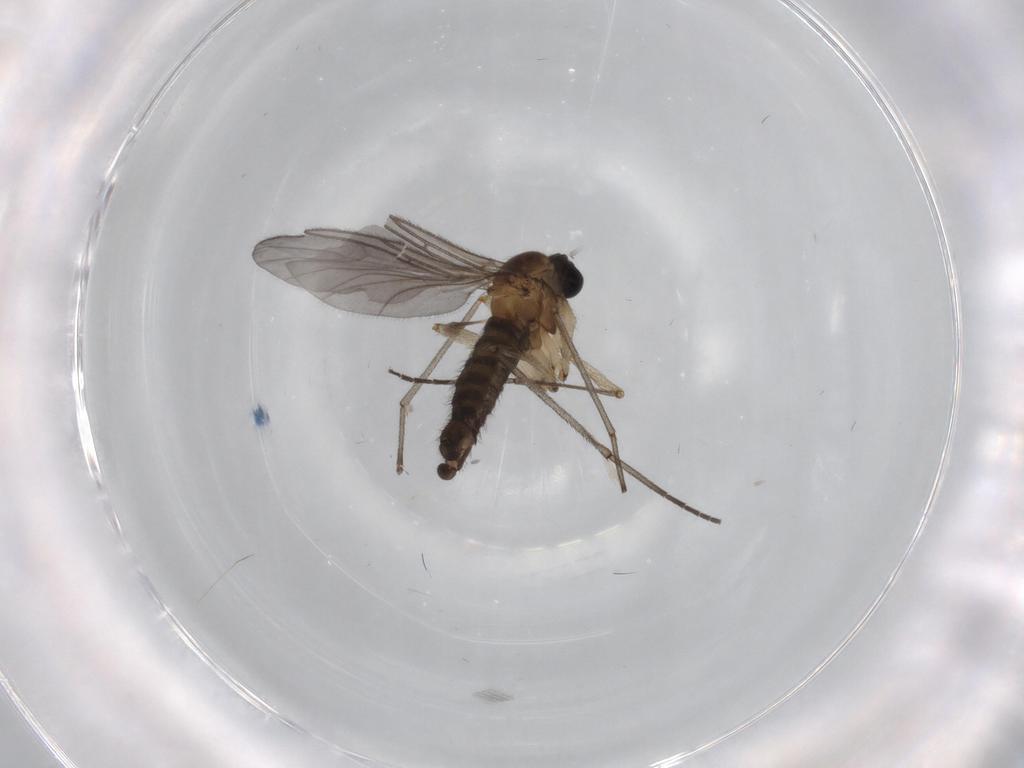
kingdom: Animalia
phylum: Arthropoda
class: Insecta
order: Diptera
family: Sciaridae
